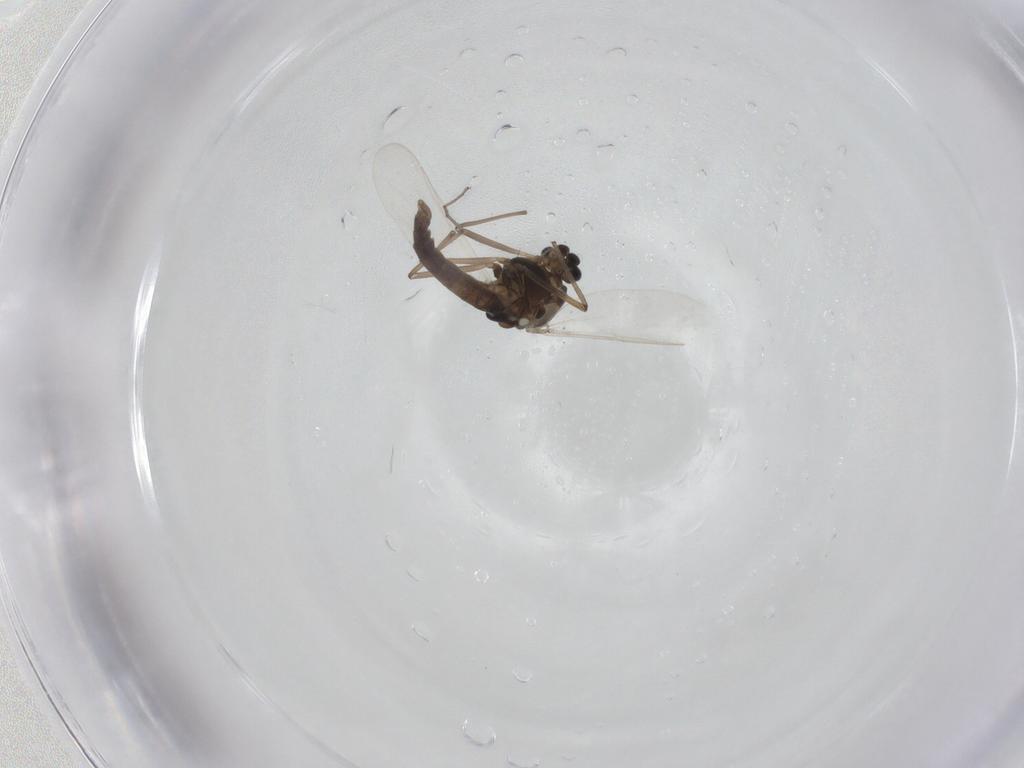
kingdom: Animalia
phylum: Arthropoda
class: Insecta
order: Diptera
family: Chironomidae
